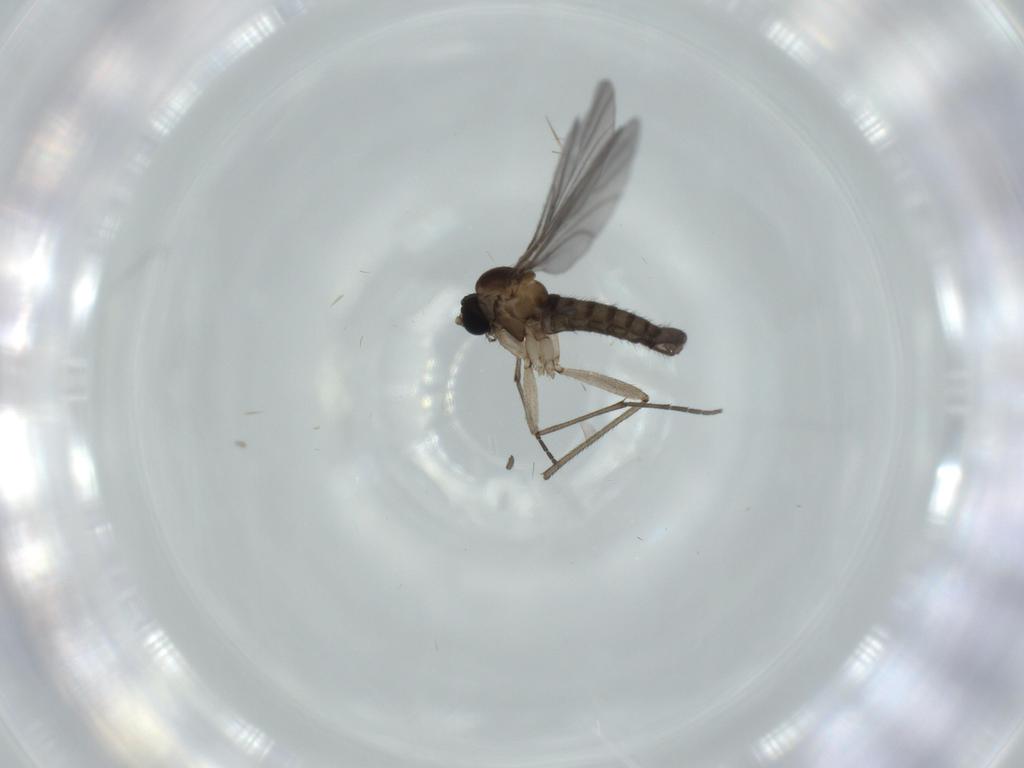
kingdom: Animalia
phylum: Arthropoda
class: Insecta
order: Diptera
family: Sciaridae
